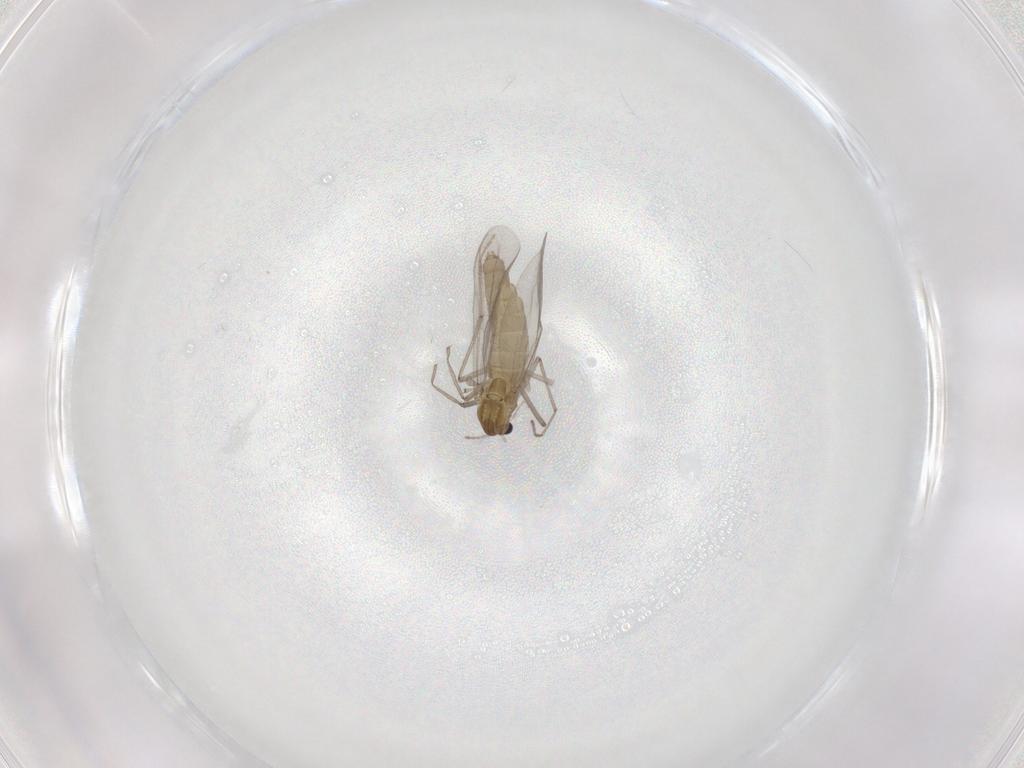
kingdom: Animalia
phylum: Arthropoda
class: Insecta
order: Diptera
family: Chironomidae
